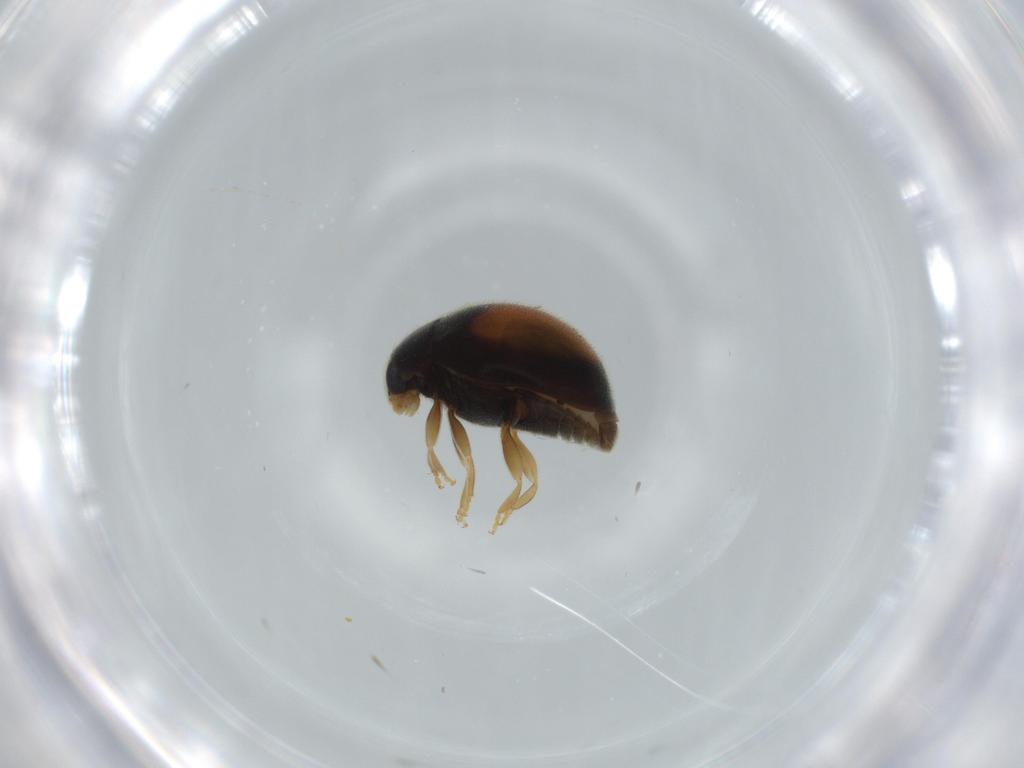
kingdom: Animalia
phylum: Arthropoda
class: Insecta
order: Coleoptera
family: Coccinellidae
